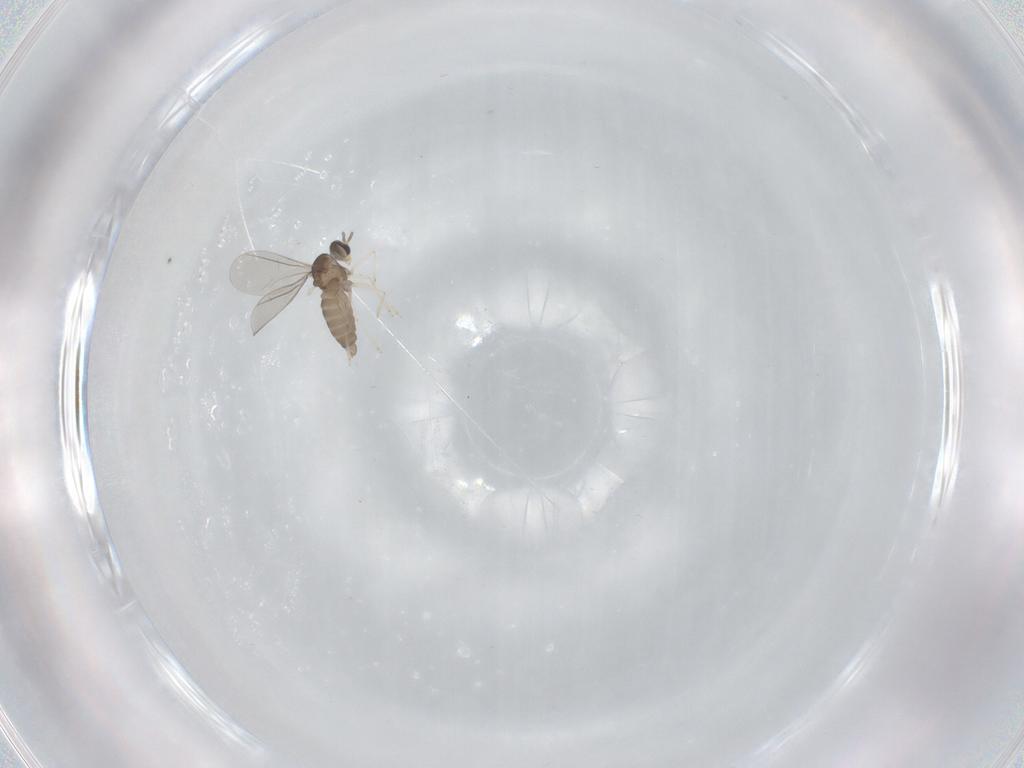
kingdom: Animalia
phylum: Arthropoda
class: Insecta
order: Diptera
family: Cecidomyiidae
